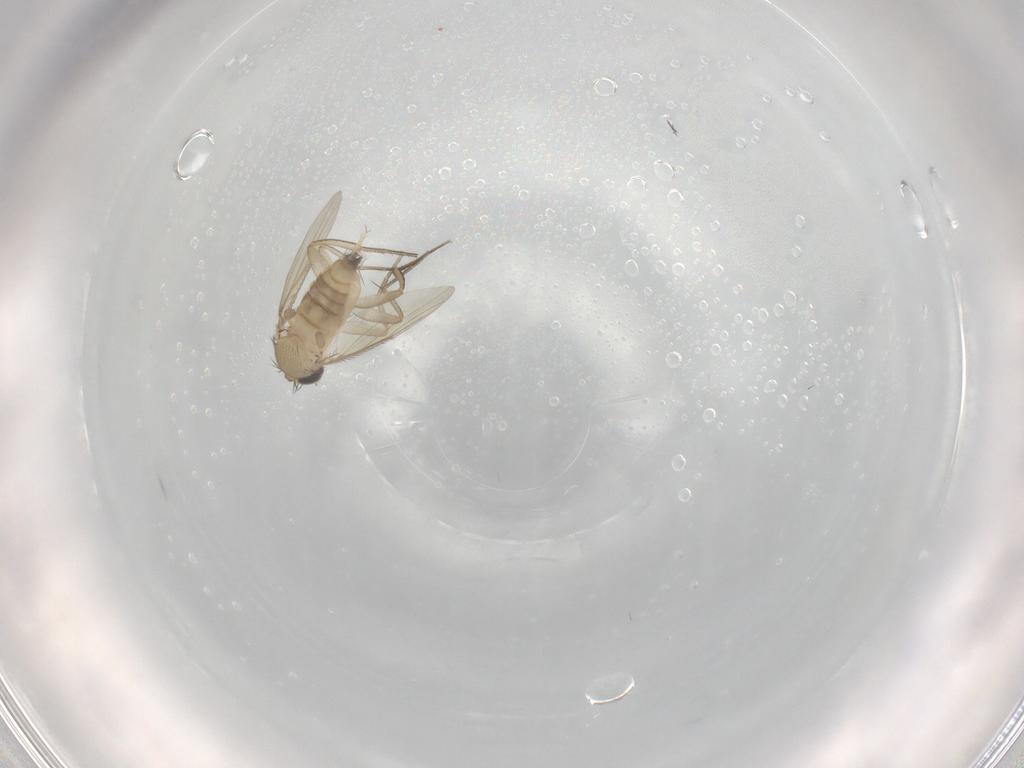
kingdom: Animalia
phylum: Arthropoda
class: Insecta
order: Diptera
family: Phoridae
